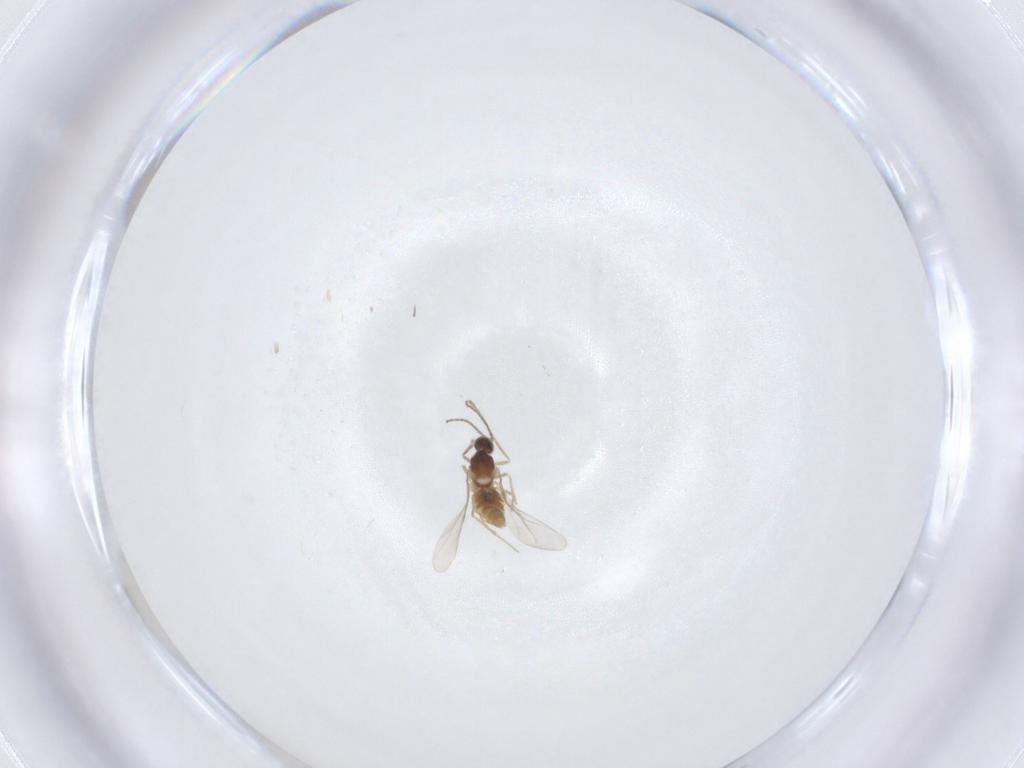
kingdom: Animalia
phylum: Arthropoda
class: Insecta
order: Diptera
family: Cecidomyiidae
